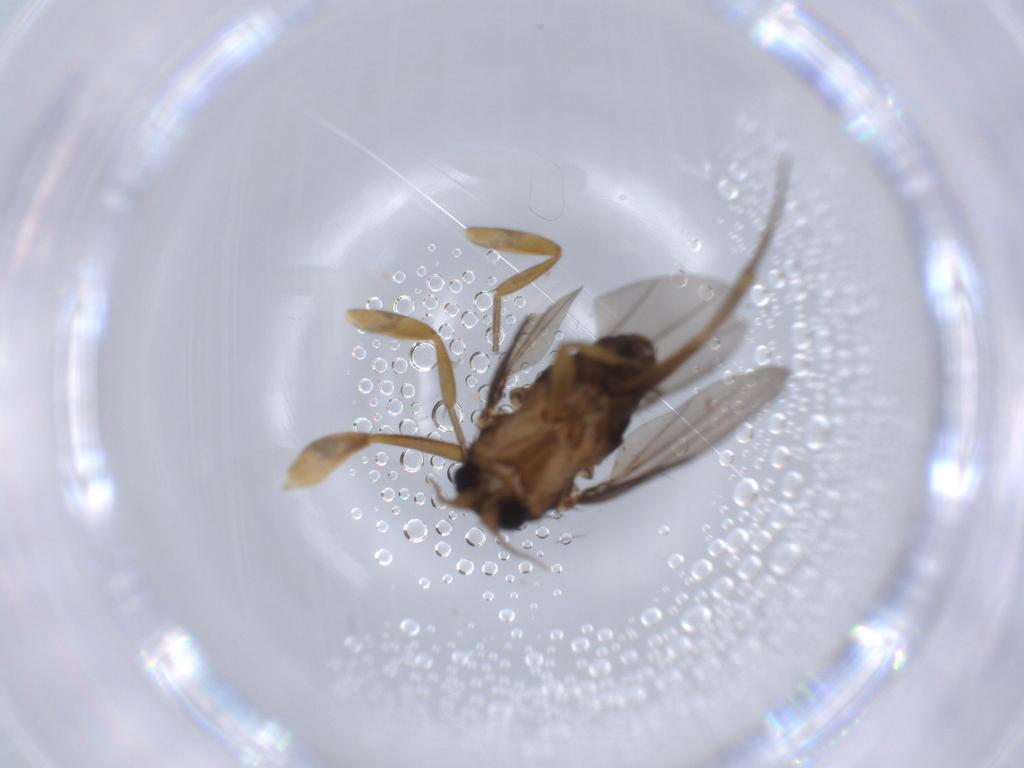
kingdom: Animalia
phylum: Arthropoda
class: Insecta
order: Diptera
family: Phoridae
